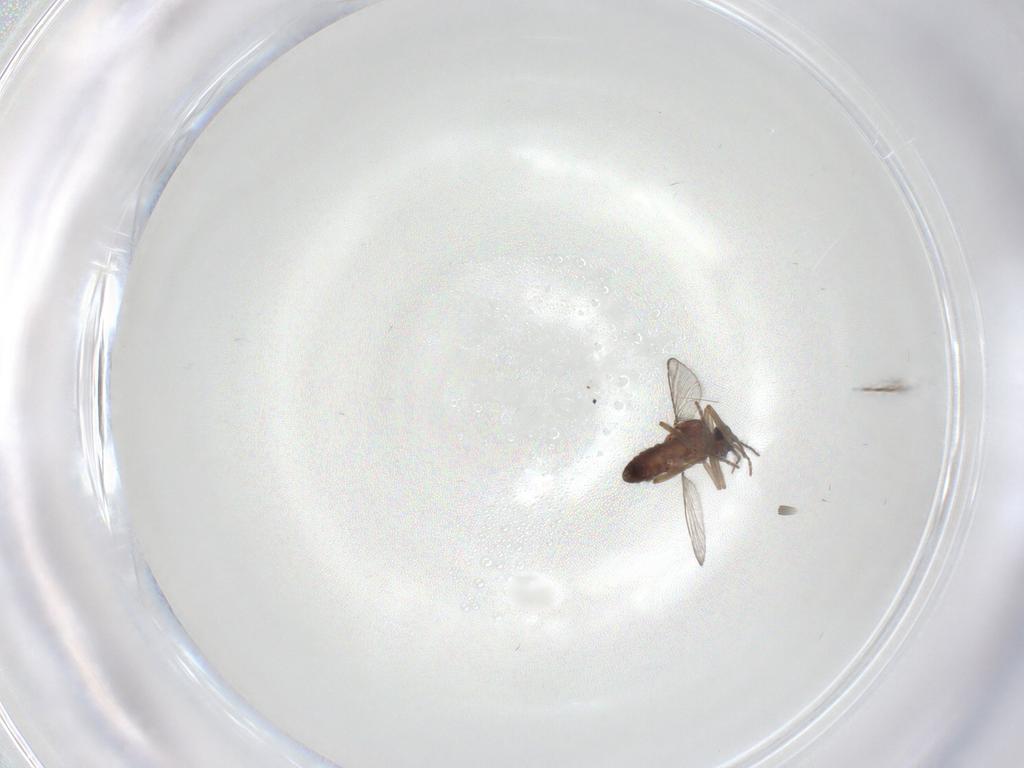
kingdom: Animalia
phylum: Arthropoda
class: Insecta
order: Diptera
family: Ceratopogonidae
